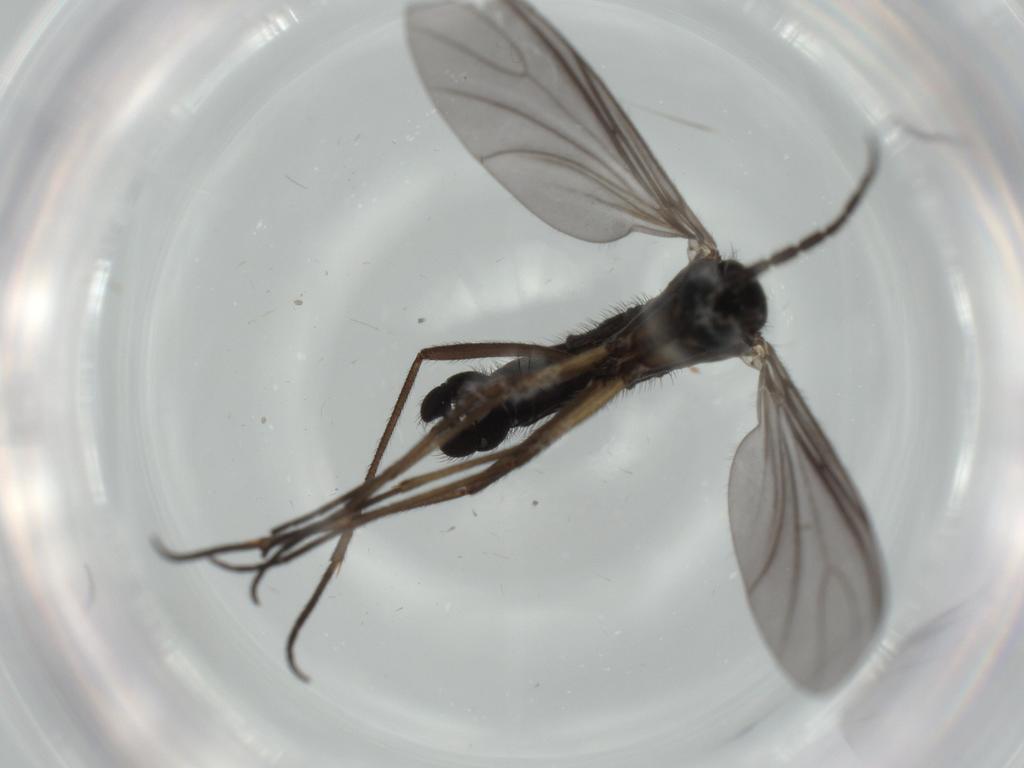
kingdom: Animalia
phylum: Arthropoda
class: Insecta
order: Diptera
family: Sciaridae
